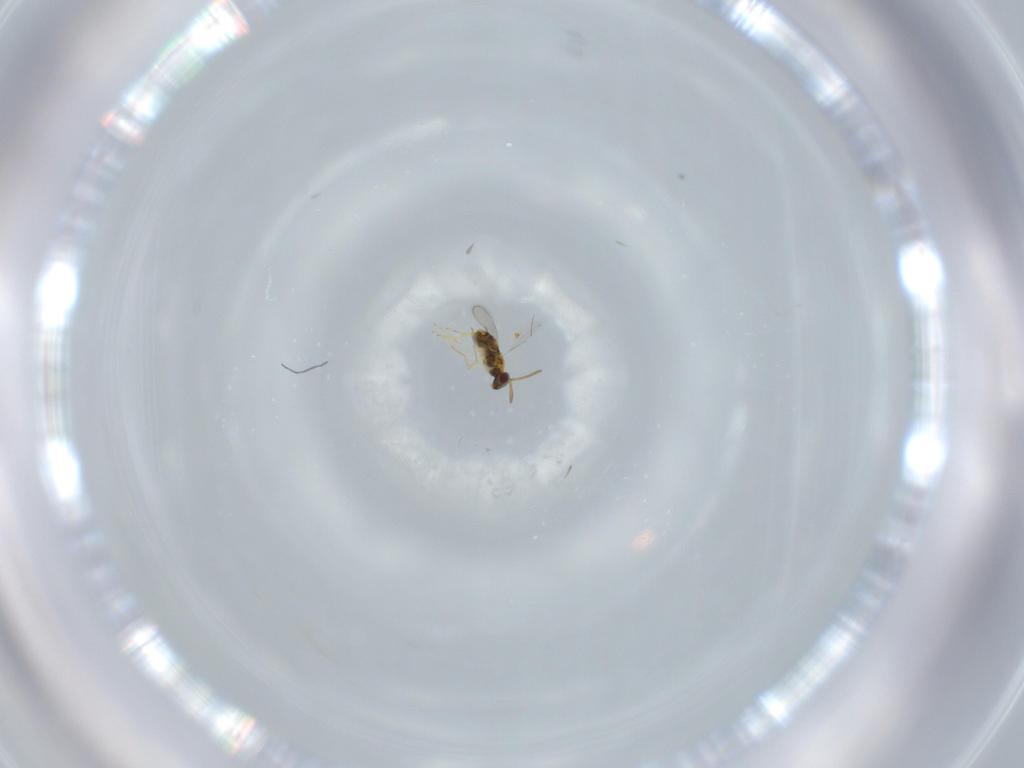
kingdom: Animalia
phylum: Arthropoda
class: Insecta
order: Hymenoptera
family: Aphelinidae
